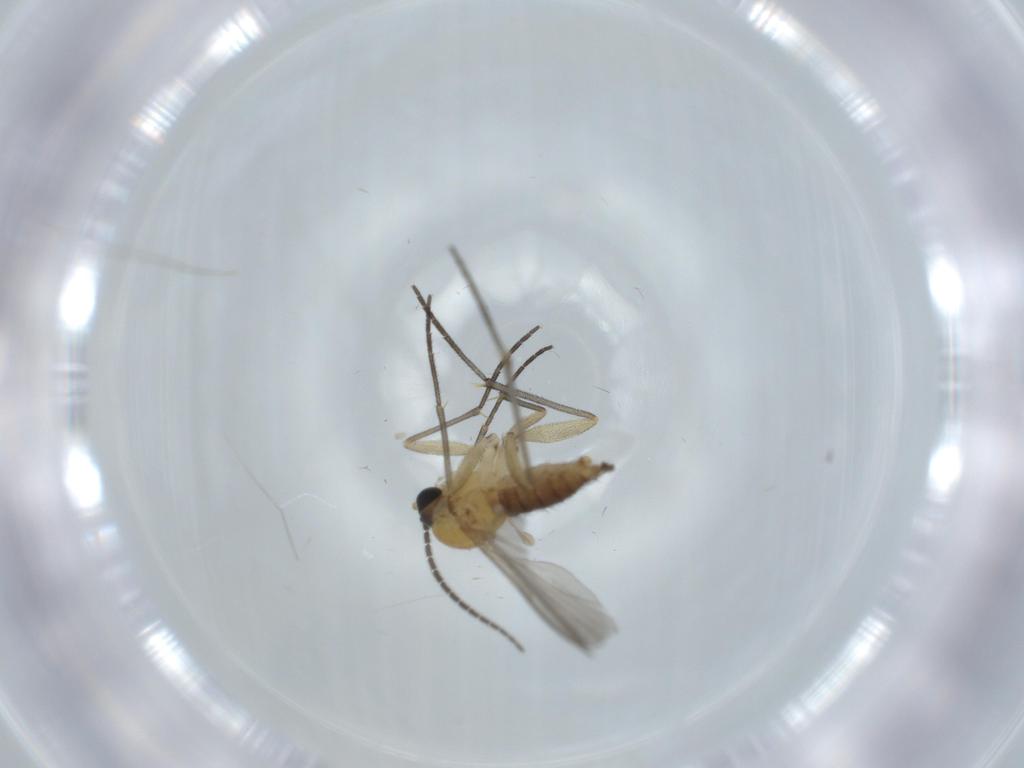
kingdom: Animalia
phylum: Arthropoda
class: Insecta
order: Diptera
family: Sciaridae
